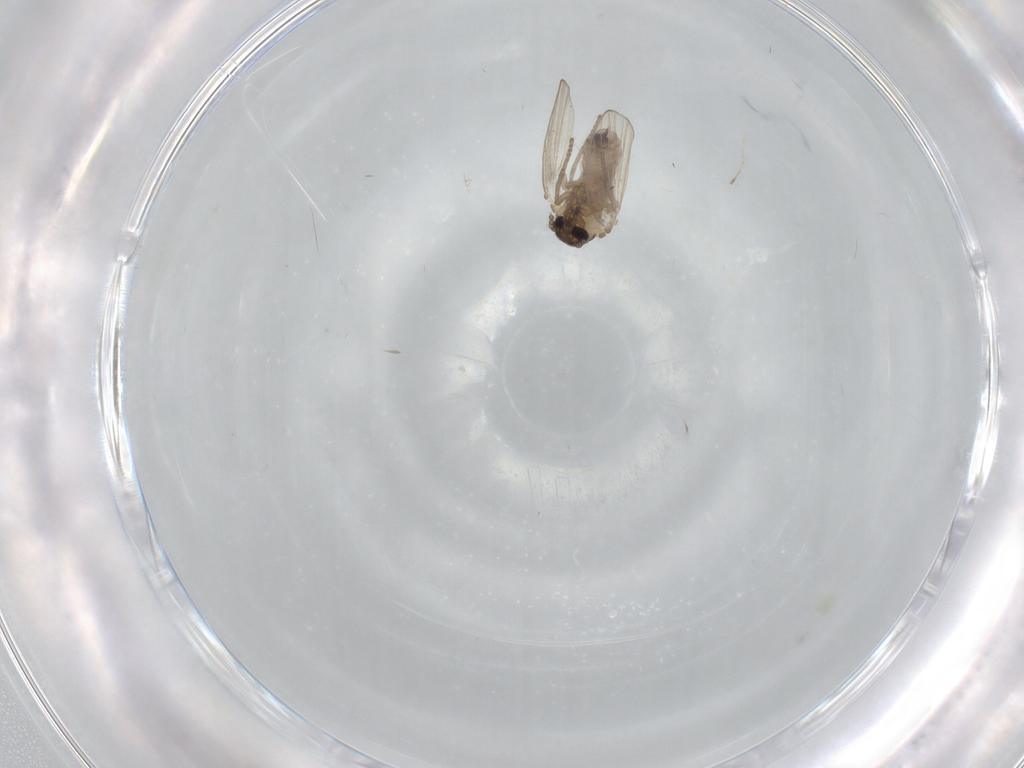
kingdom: Animalia
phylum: Arthropoda
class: Insecta
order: Diptera
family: Psychodidae
